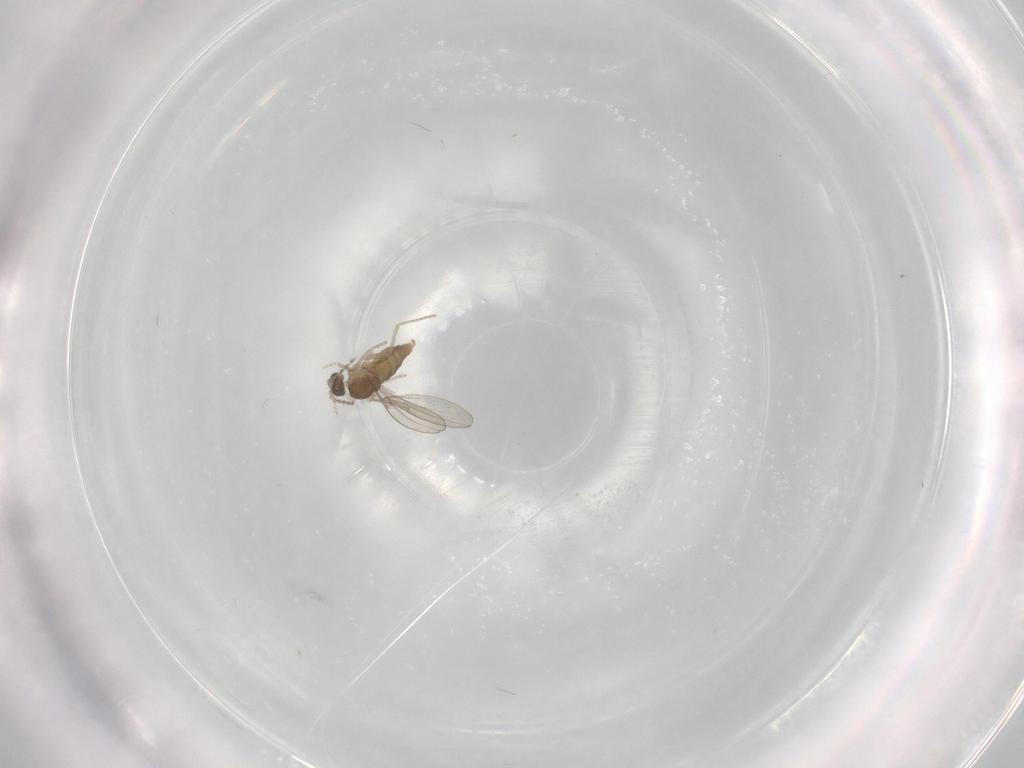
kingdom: Animalia
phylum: Arthropoda
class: Insecta
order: Diptera
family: Cecidomyiidae
